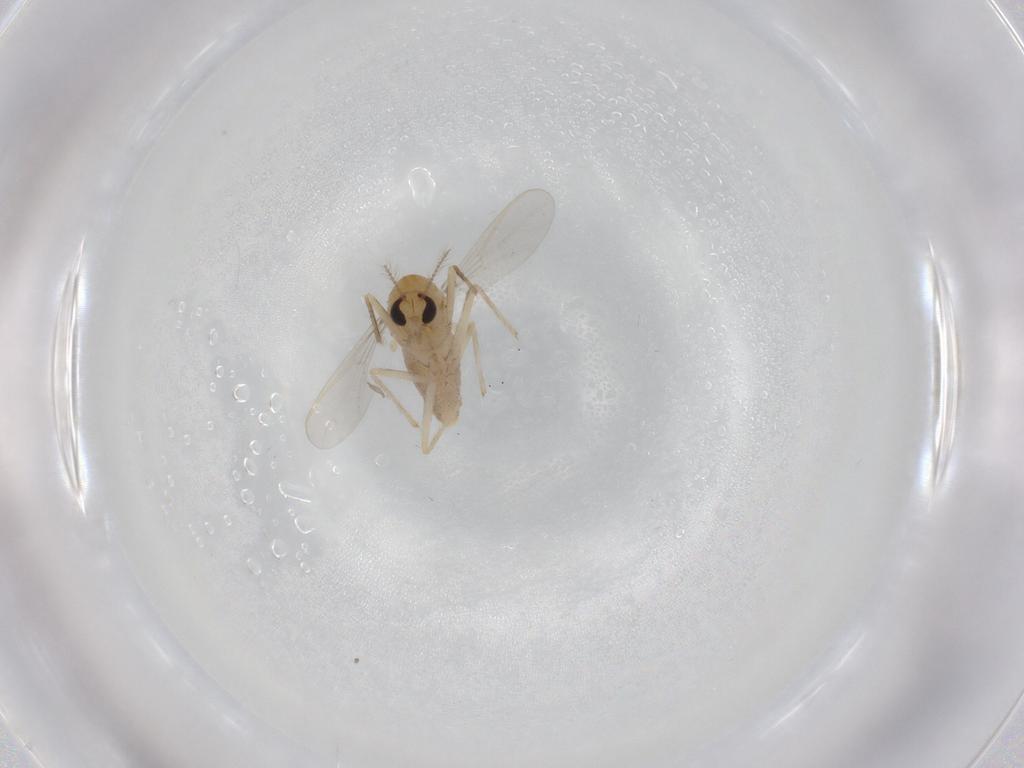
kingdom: Animalia
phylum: Arthropoda
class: Insecta
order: Diptera
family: Chironomidae
